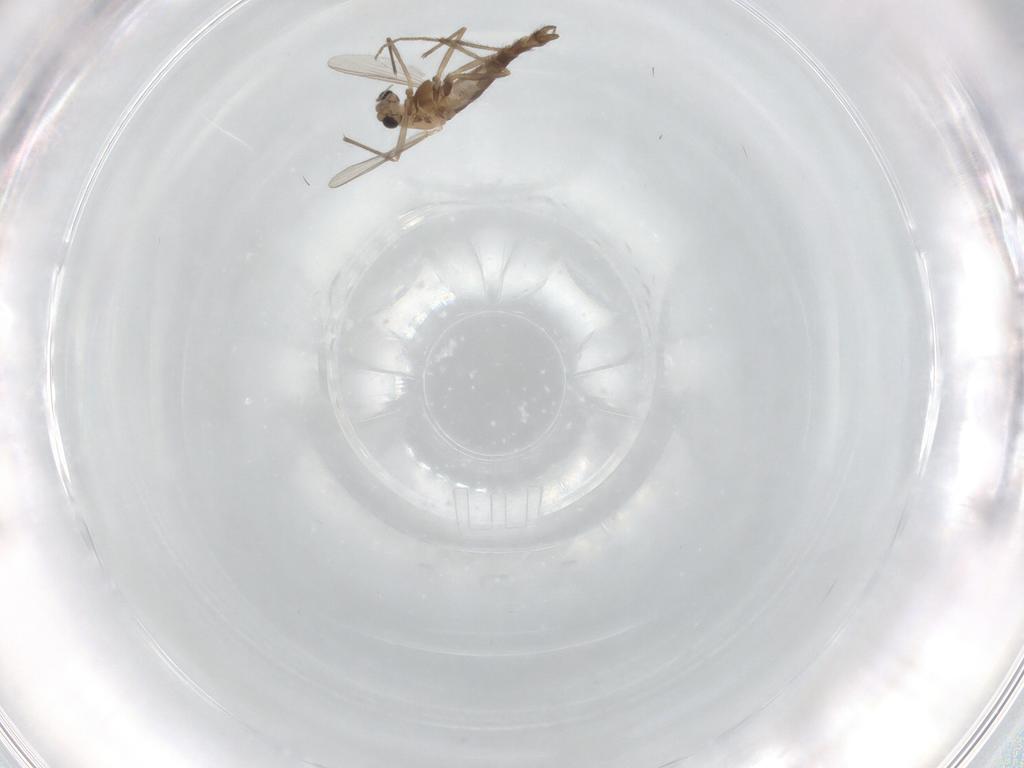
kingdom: Animalia
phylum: Arthropoda
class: Insecta
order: Diptera
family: Chironomidae
